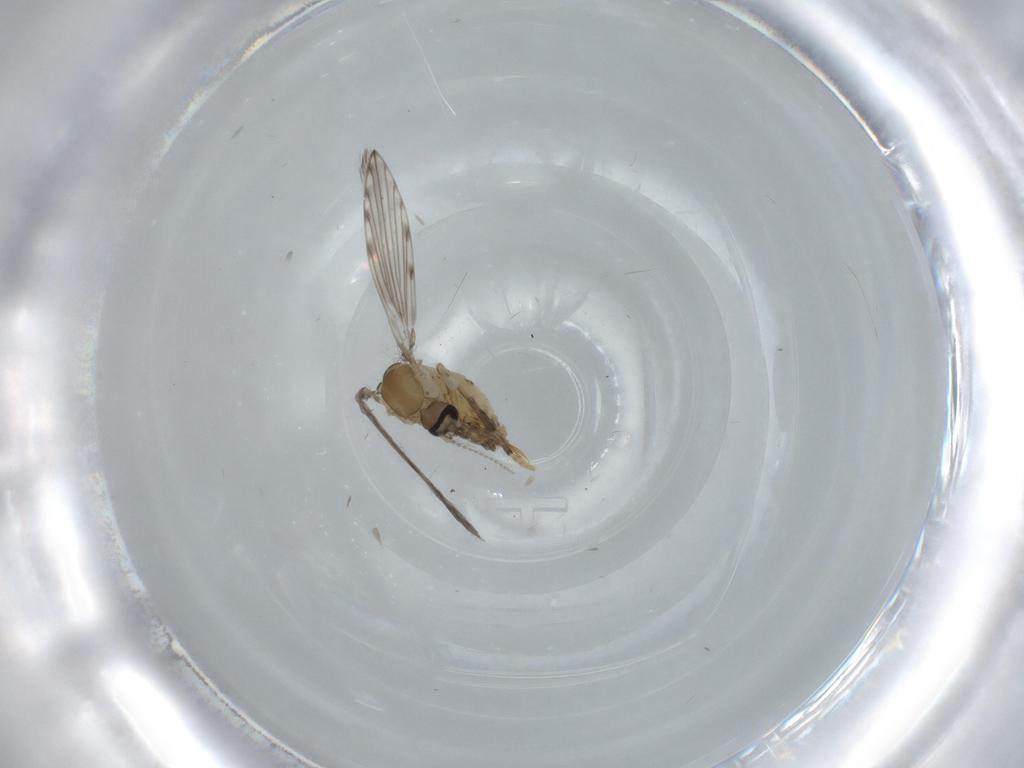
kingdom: Animalia
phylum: Arthropoda
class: Insecta
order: Diptera
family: Psychodidae
